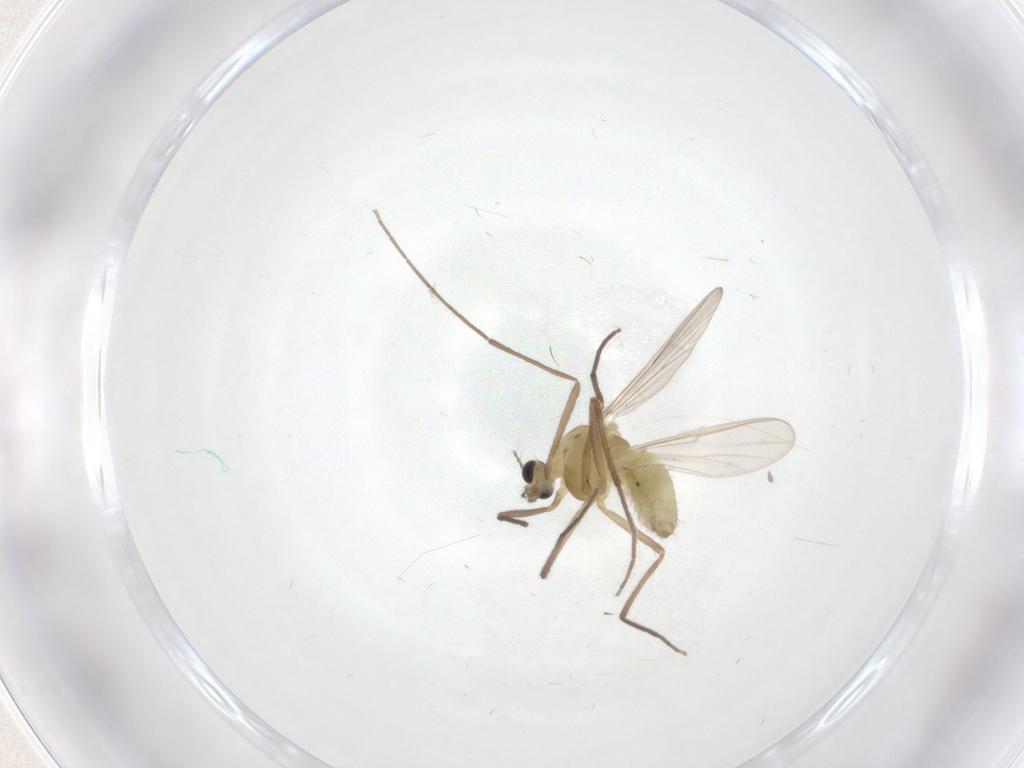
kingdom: Animalia
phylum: Arthropoda
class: Insecta
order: Diptera
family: Chironomidae
